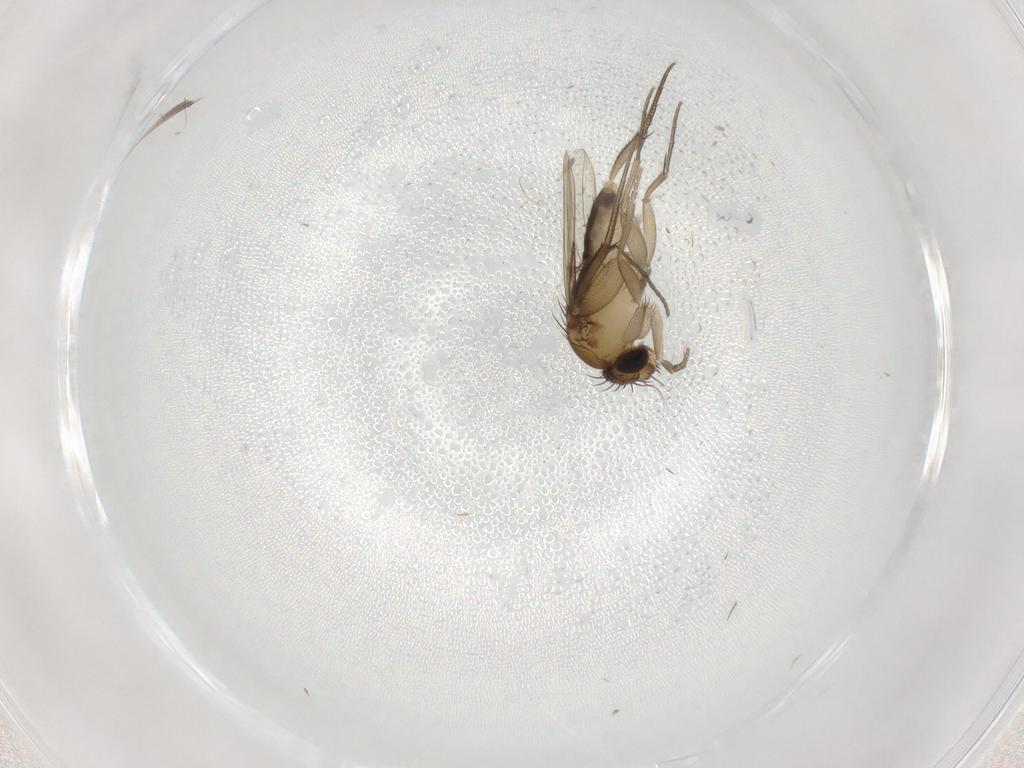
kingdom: Animalia
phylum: Arthropoda
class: Insecta
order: Diptera
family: Phoridae
